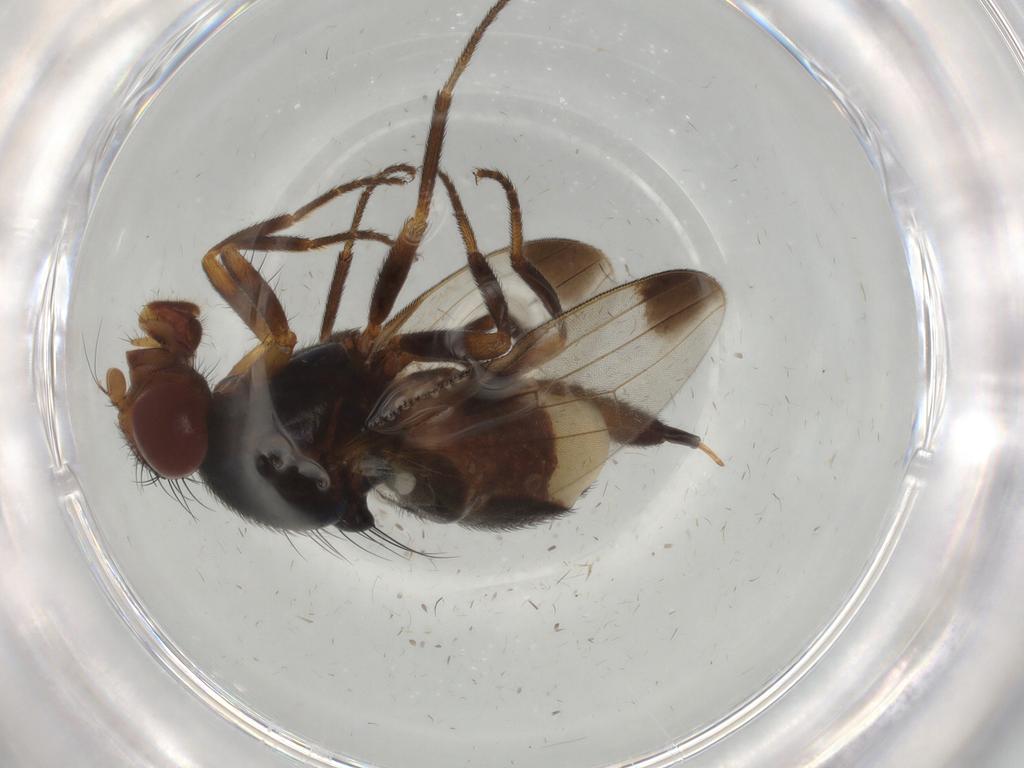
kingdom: Animalia
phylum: Arthropoda
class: Insecta
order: Diptera
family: Ulidiidae
